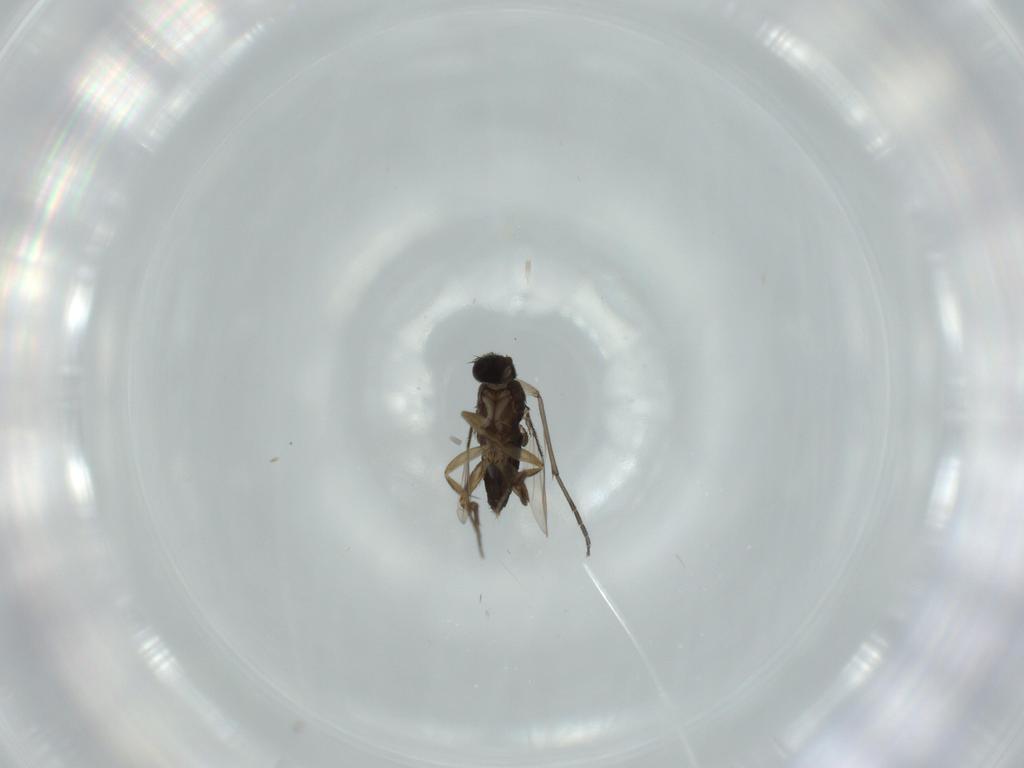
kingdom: Animalia
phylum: Arthropoda
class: Insecta
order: Diptera
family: Phoridae
